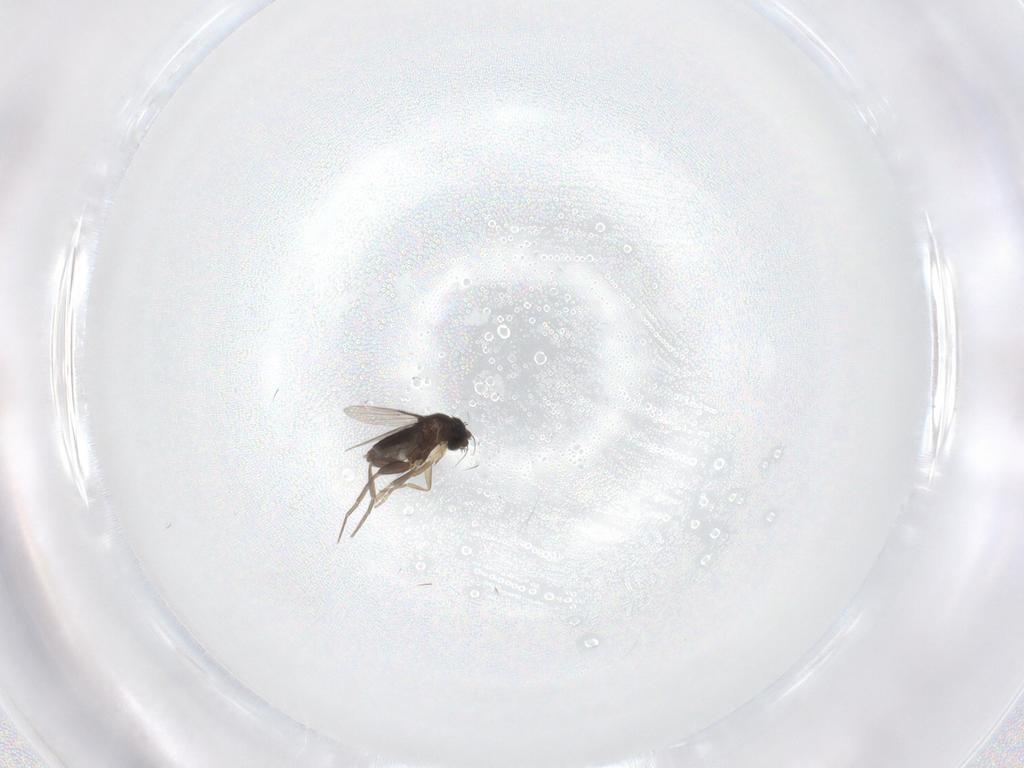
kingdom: Animalia
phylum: Arthropoda
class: Insecta
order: Diptera
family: Phoridae
